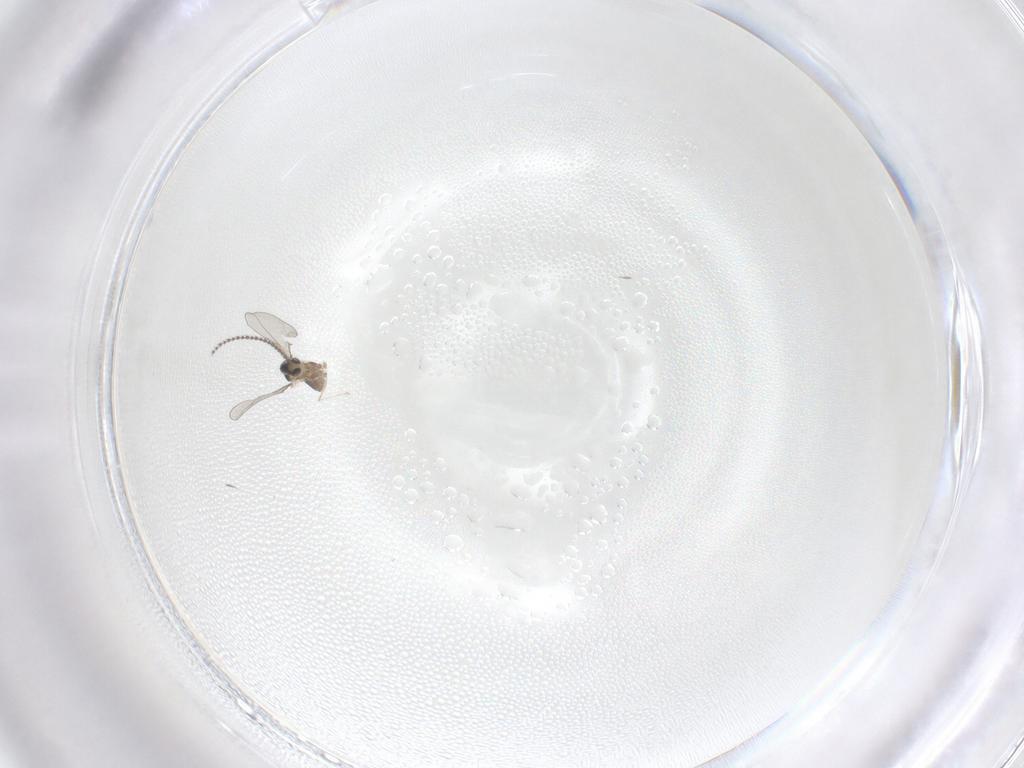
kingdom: Animalia
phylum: Arthropoda
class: Insecta
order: Diptera
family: Cecidomyiidae
